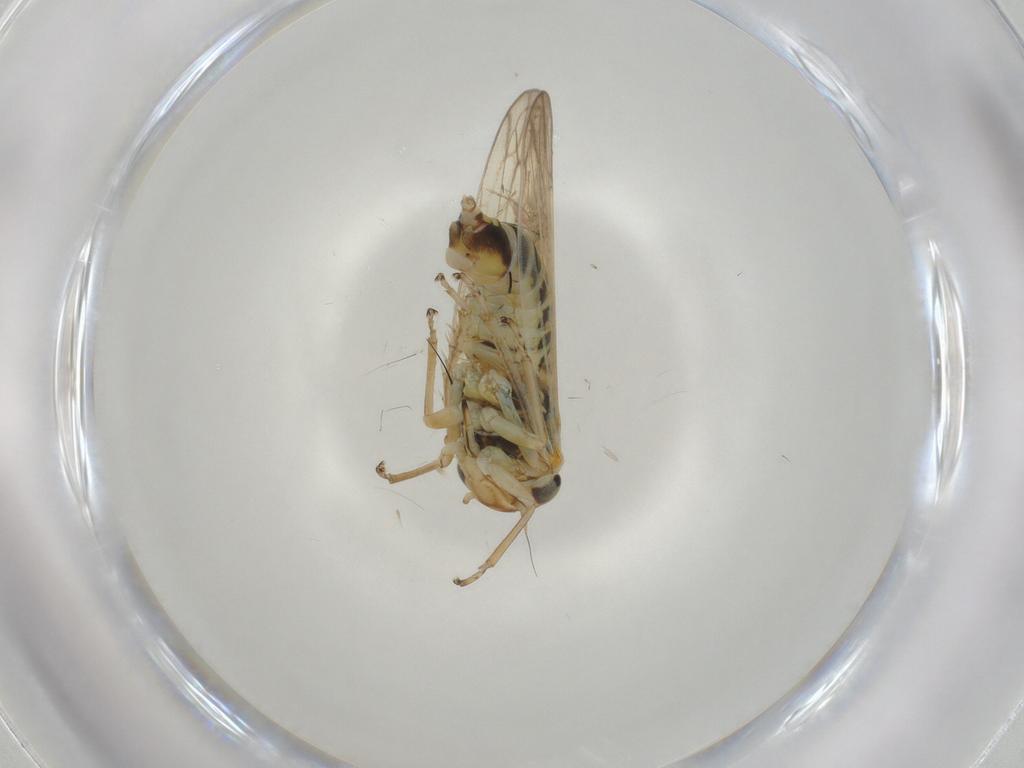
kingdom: Animalia
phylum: Arthropoda
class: Insecta
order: Hemiptera
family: Cicadellidae
